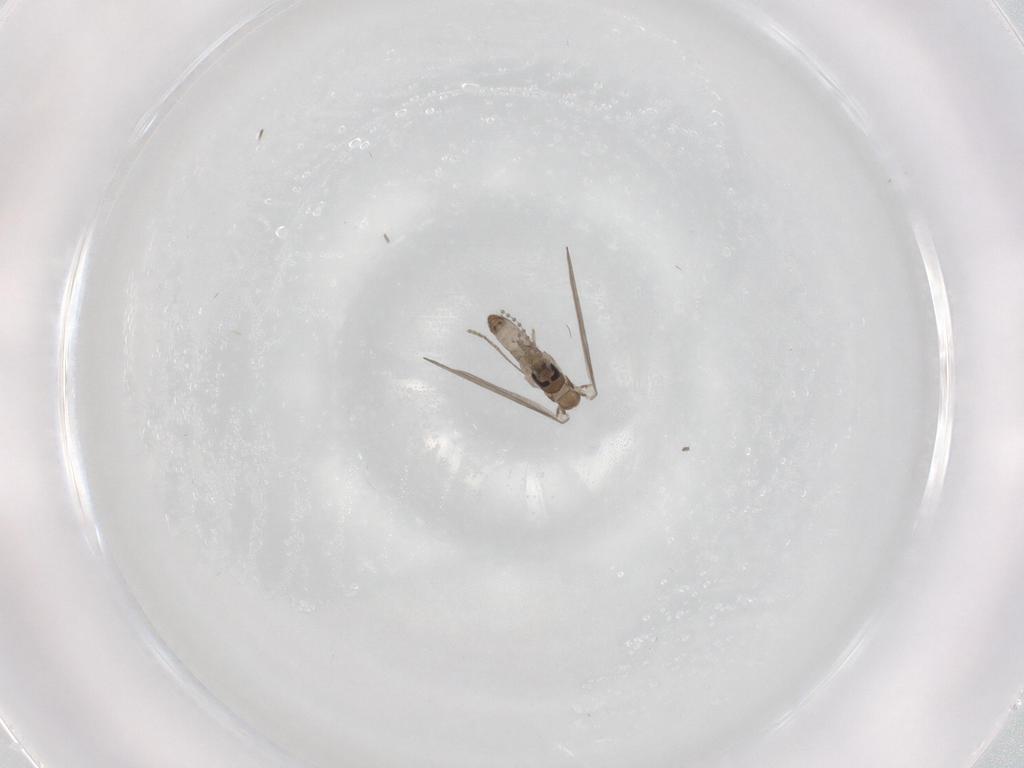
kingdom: Animalia
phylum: Arthropoda
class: Insecta
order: Diptera
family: Psychodidae
